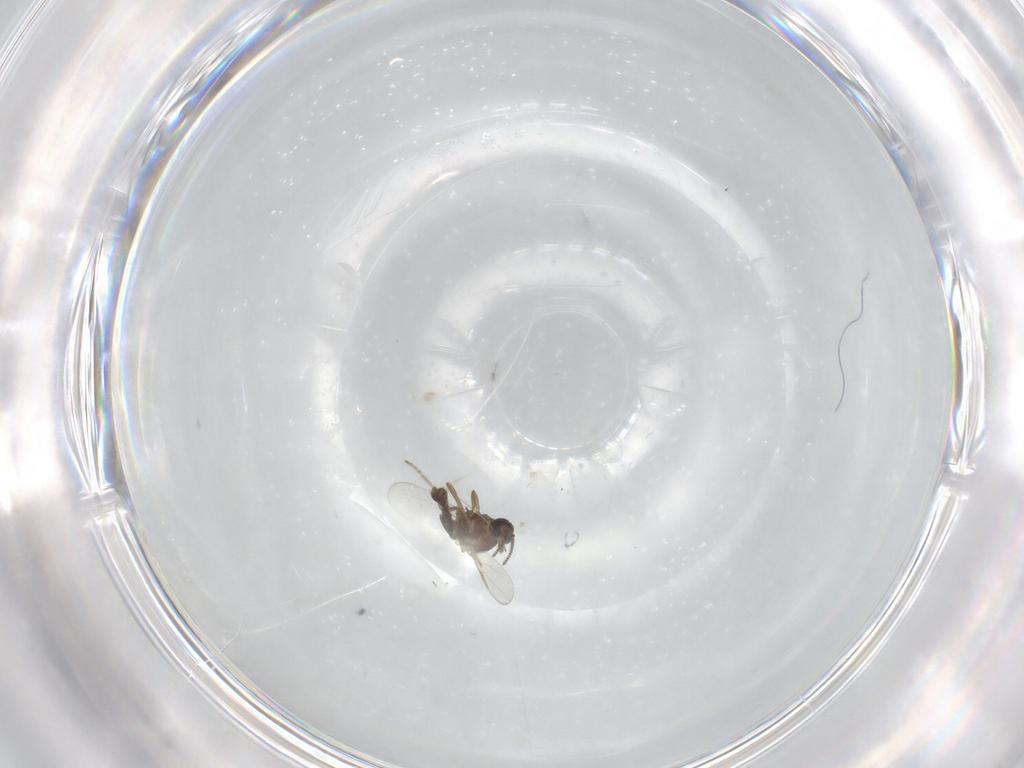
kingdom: Animalia
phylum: Arthropoda
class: Insecta
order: Diptera
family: Ceratopogonidae
